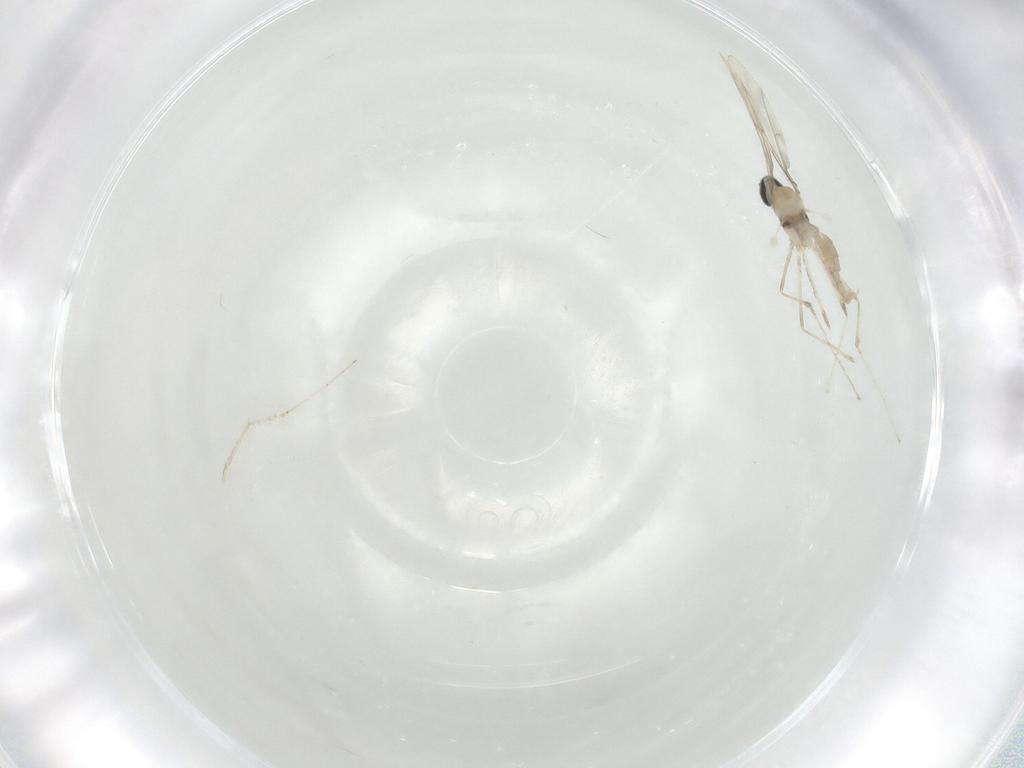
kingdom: Animalia
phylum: Arthropoda
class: Insecta
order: Diptera
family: Cecidomyiidae
